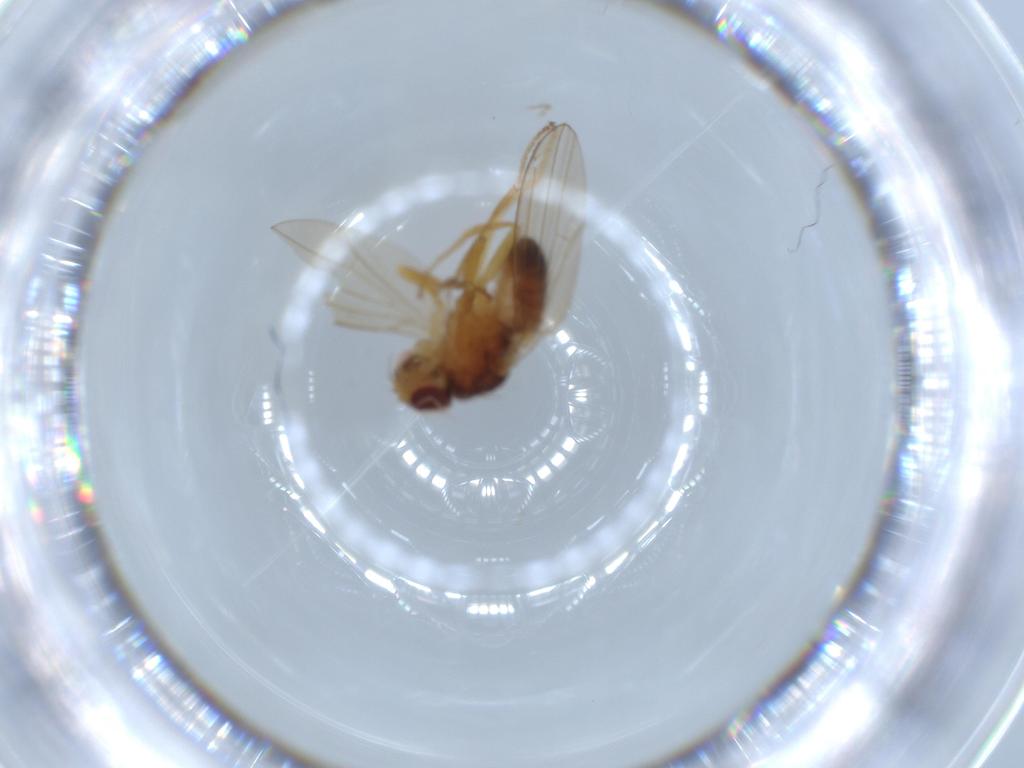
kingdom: Animalia
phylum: Arthropoda
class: Insecta
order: Diptera
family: Drosophilidae
